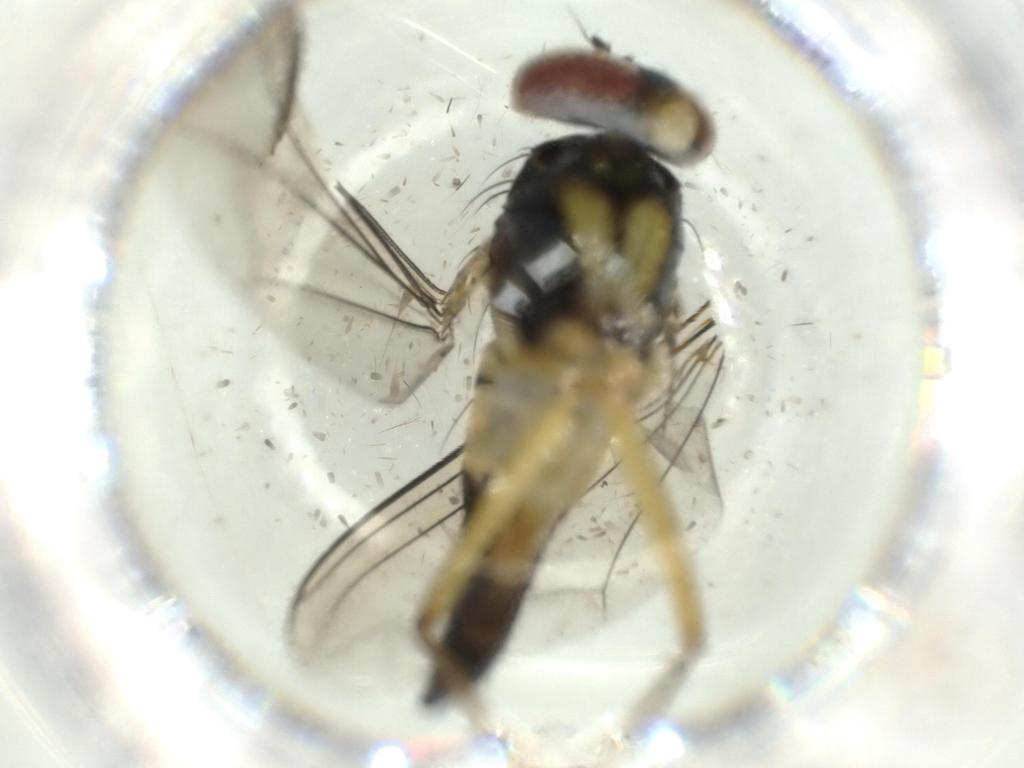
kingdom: Animalia
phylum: Arthropoda
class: Insecta
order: Diptera
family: Dolichopodidae
